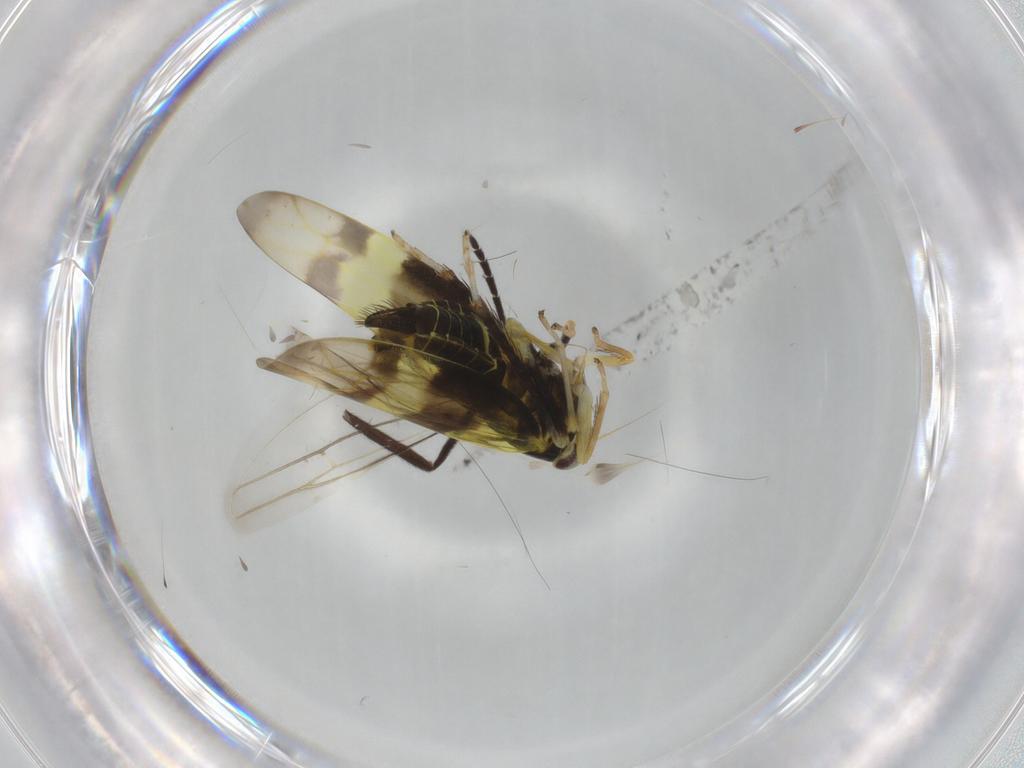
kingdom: Animalia
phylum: Arthropoda
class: Insecta
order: Hemiptera
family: Cicadellidae
